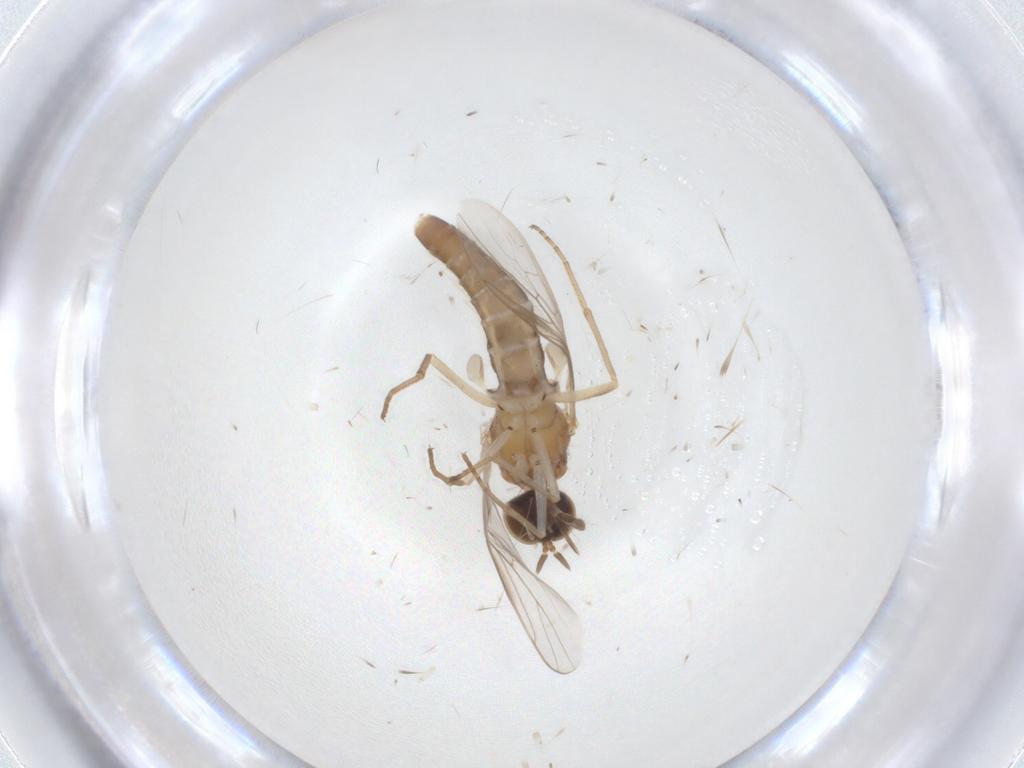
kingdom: Animalia
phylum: Arthropoda
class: Insecta
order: Diptera
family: Scenopinidae
